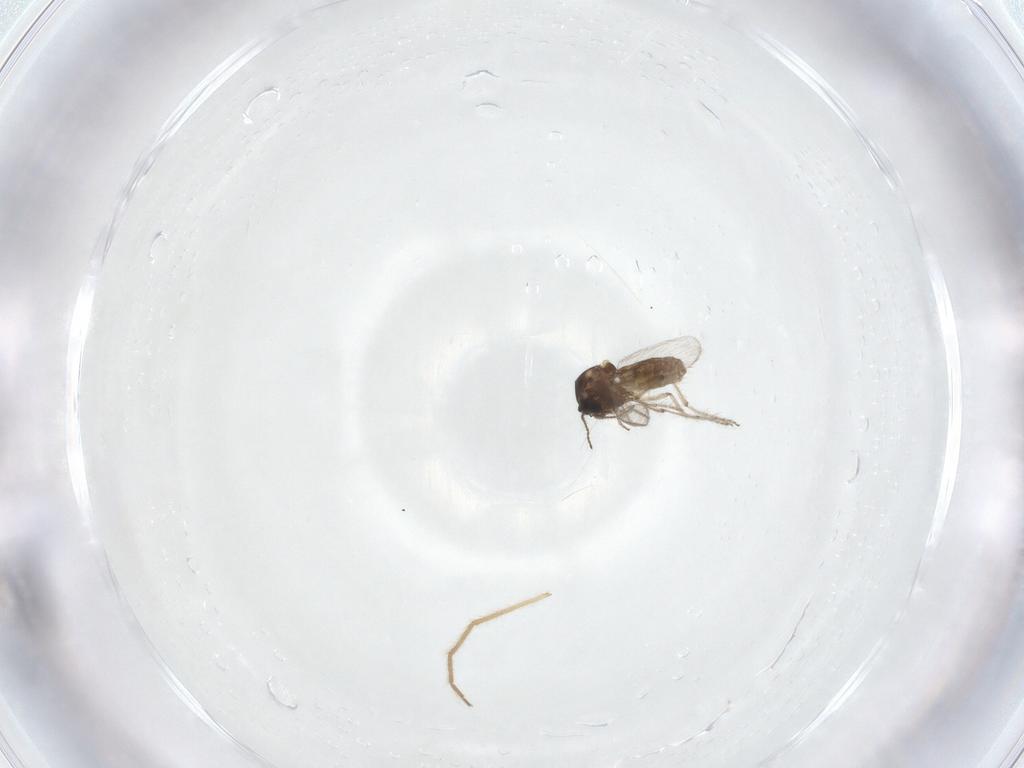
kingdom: Animalia
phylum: Arthropoda
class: Insecta
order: Diptera
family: Ceratopogonidae
